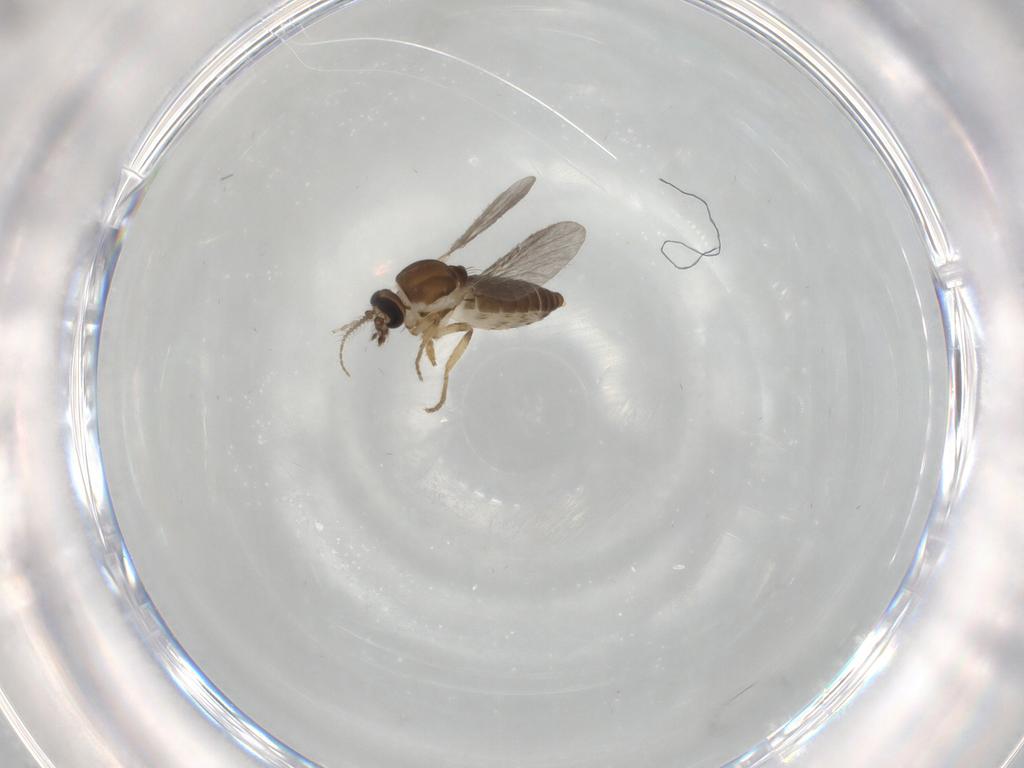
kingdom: Animalia
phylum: Arthropoda
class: Insecta
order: Diptera
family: Ceratopogonidae
